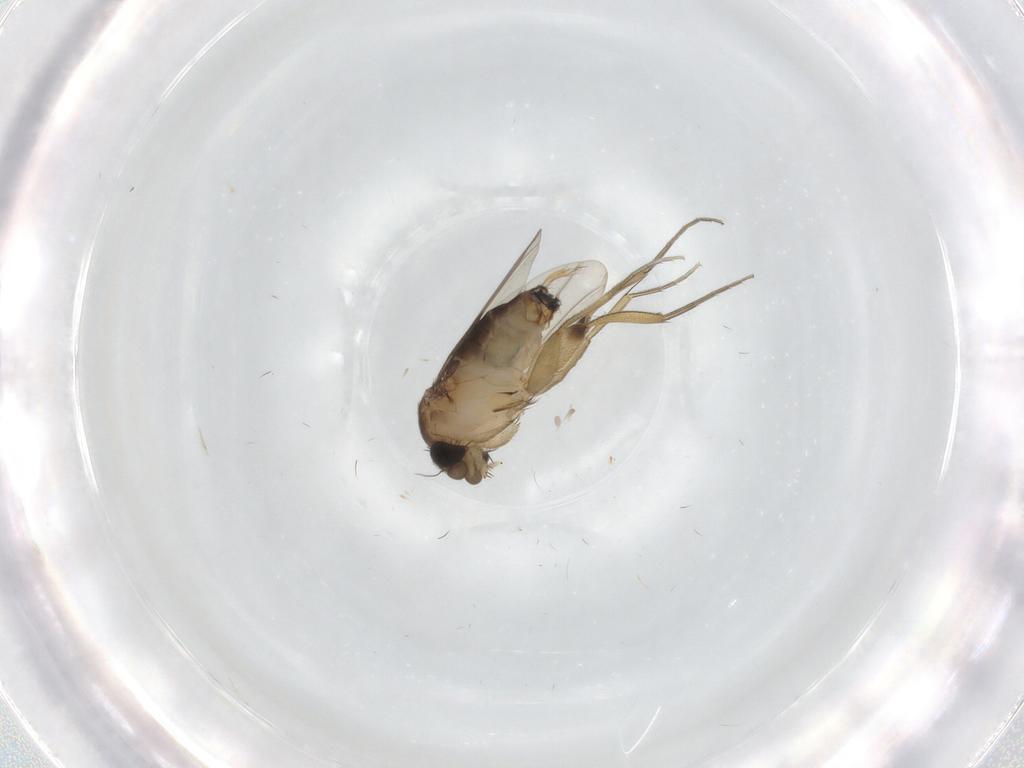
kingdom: Animalia
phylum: Arthropoda
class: Insecta
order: Diptera
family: Phoridae
